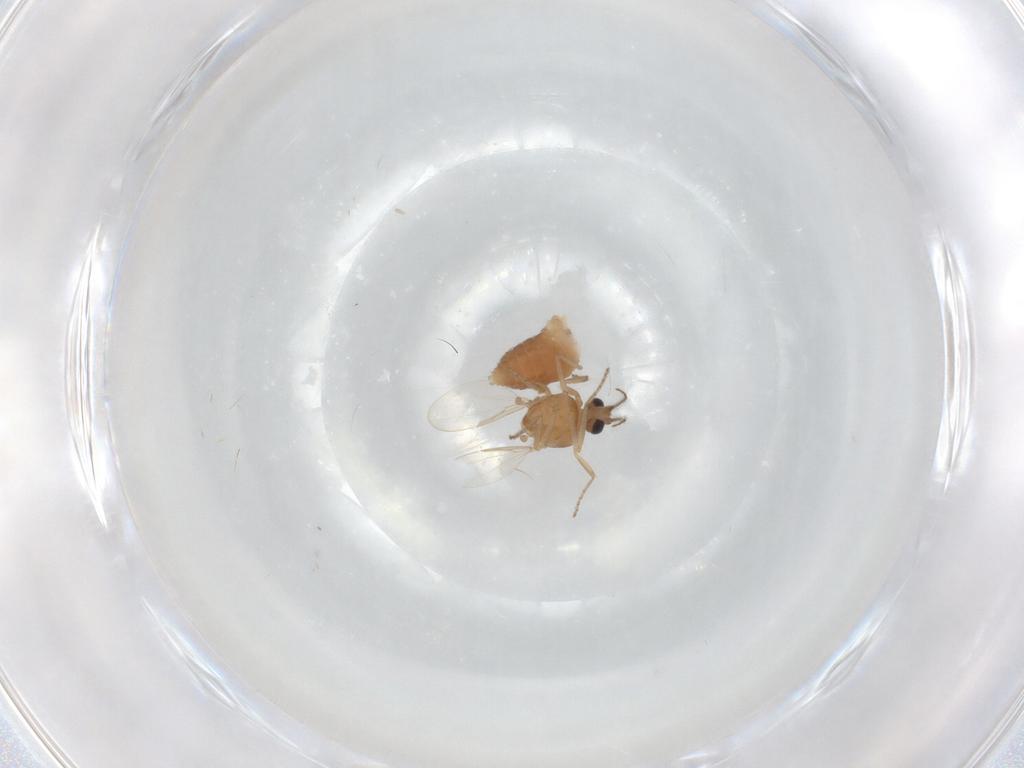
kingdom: Animalia
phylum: Arthropoda
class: Insecta
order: Diptera
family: Ceratopogonidae
